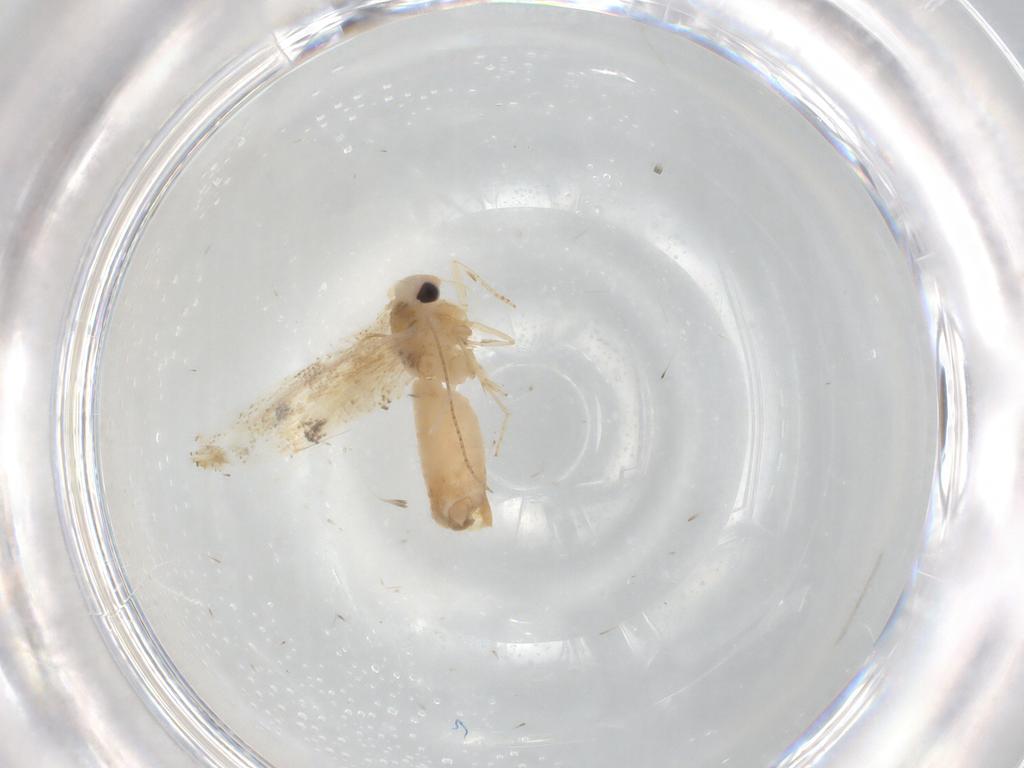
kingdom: Animalia
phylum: Arthropoda
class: Insecta
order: Lepidoptera
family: Bucculatricidae
